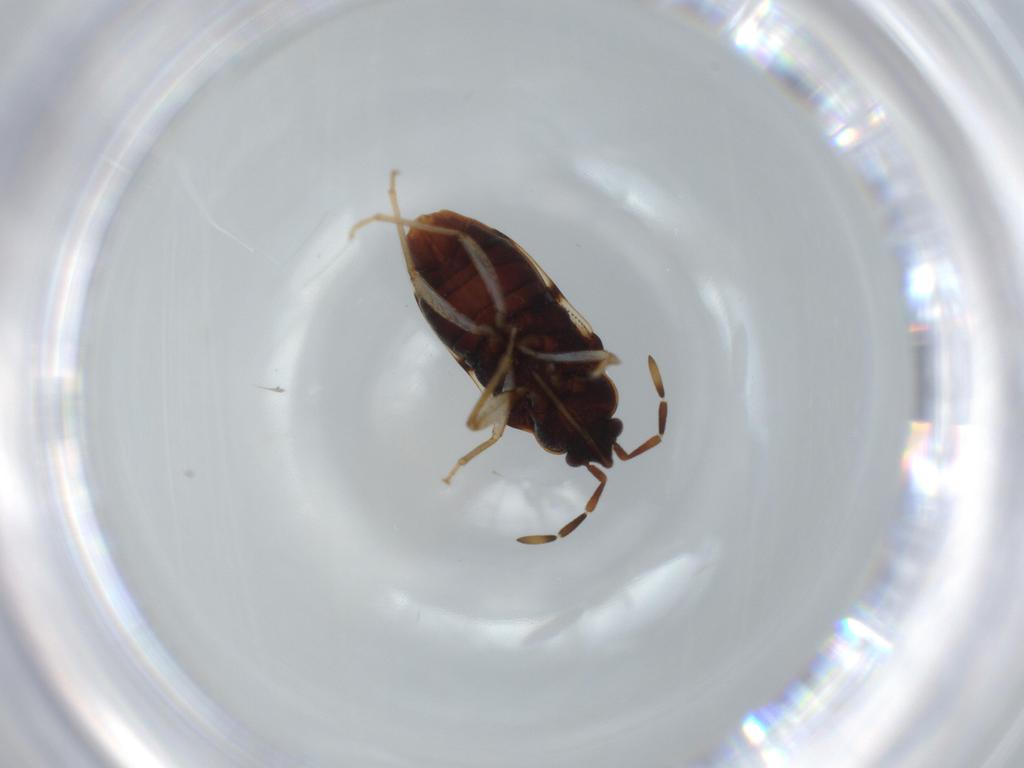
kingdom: Animalia
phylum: Arthropoda
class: Insecta
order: Hemiptera
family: Rhyparochromidae
